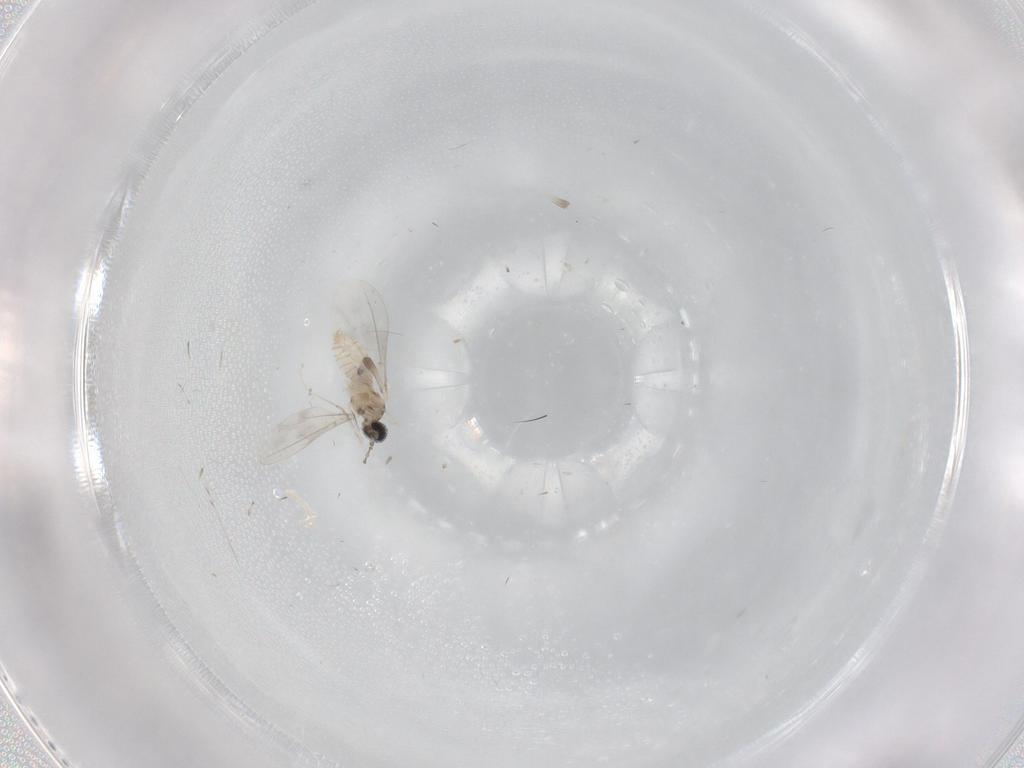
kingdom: Animalia
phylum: Arthropoda
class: Insecta
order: Diptera
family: Cecidomyiidae
